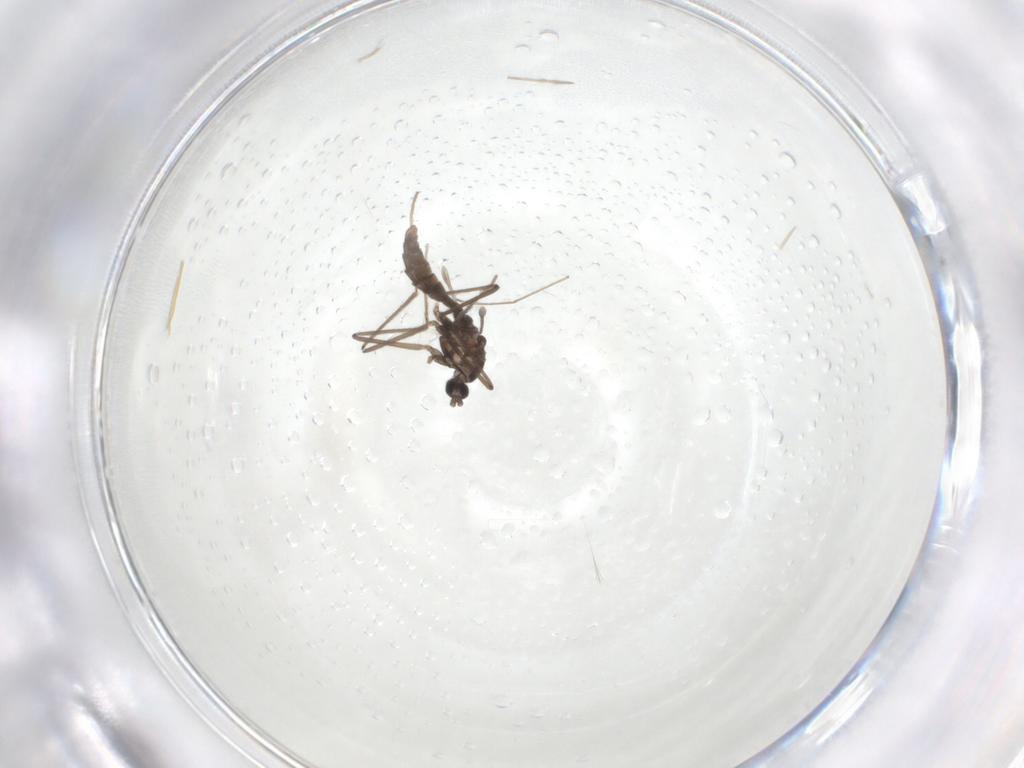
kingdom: Animalia
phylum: Arthropoda
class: Insecta
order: Diptera
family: Cecidomyiidae
